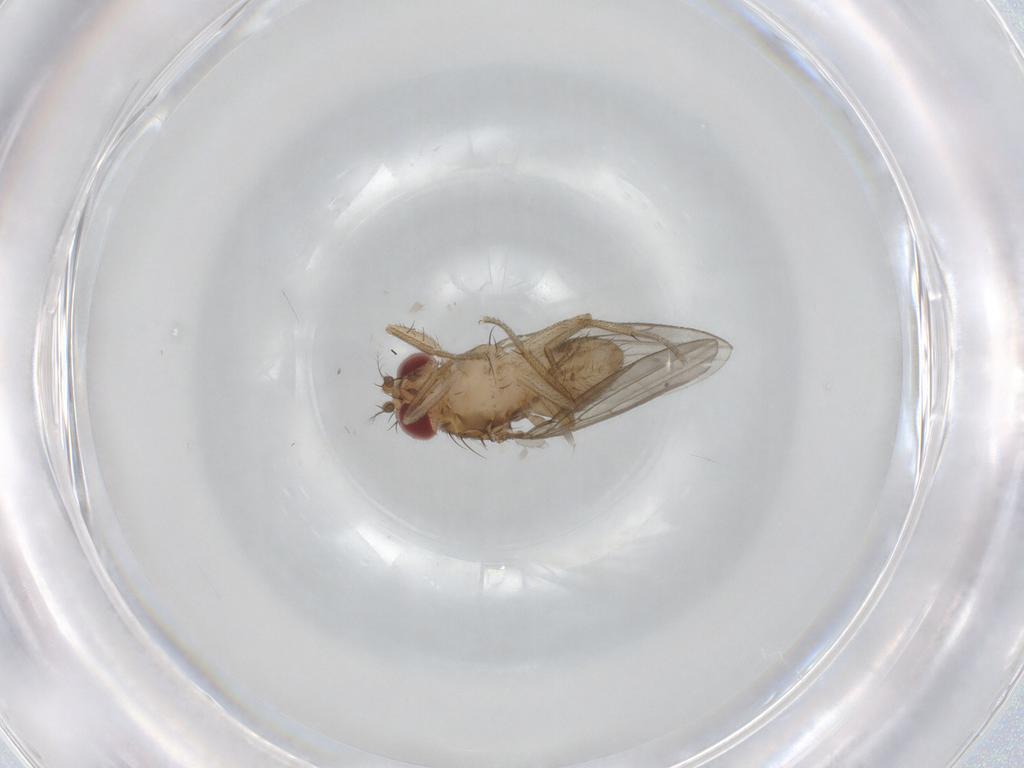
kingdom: Animalia
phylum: Arthropoda
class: Insecta
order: Diptera
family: Drosophilidae
